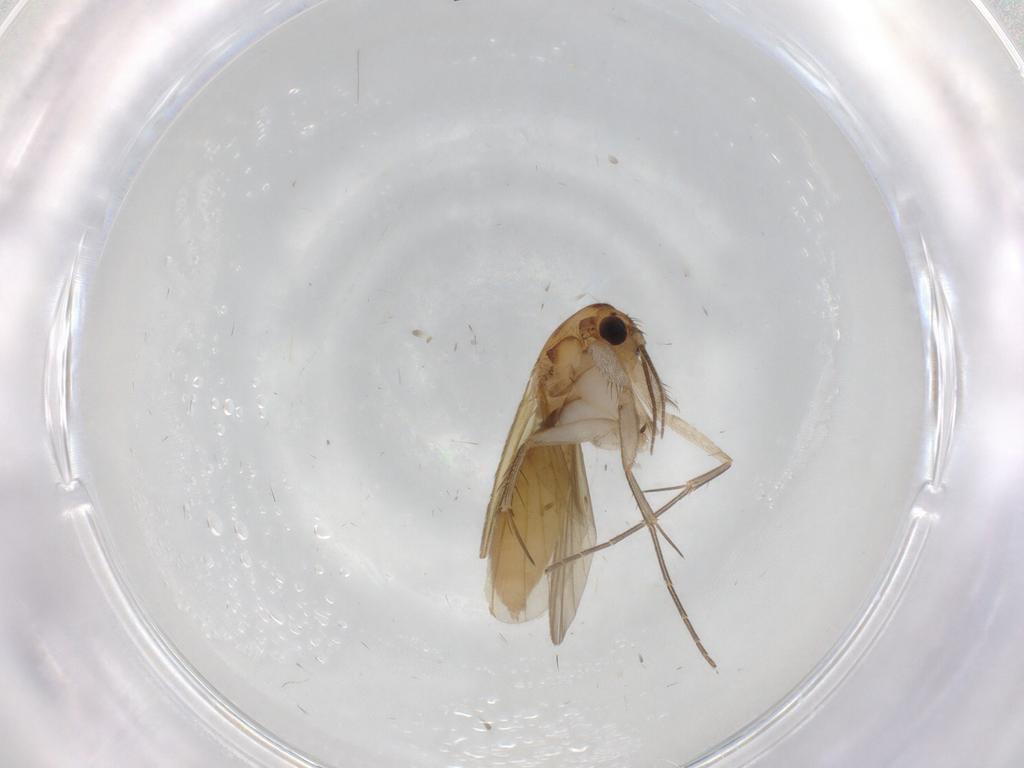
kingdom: Animalia
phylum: Arthropoda
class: Insecta
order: Diptera
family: Mycetophilidae
